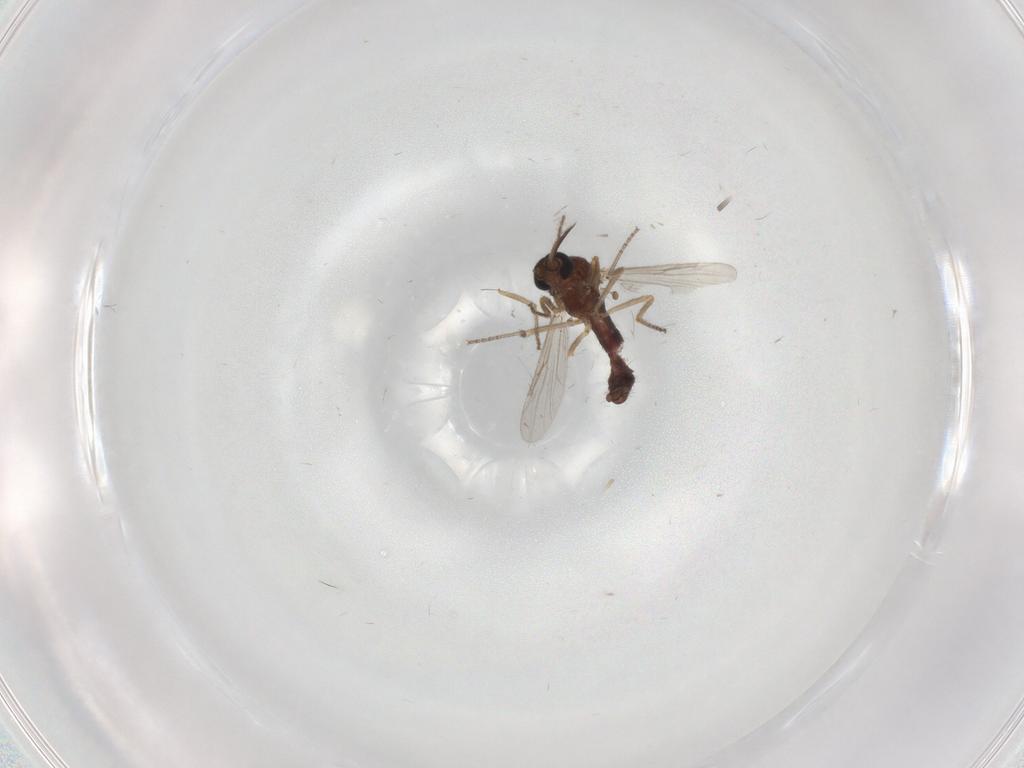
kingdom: Animalia
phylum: Arthropoda
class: Insecta
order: Diptera
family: Ceratopogonidae
